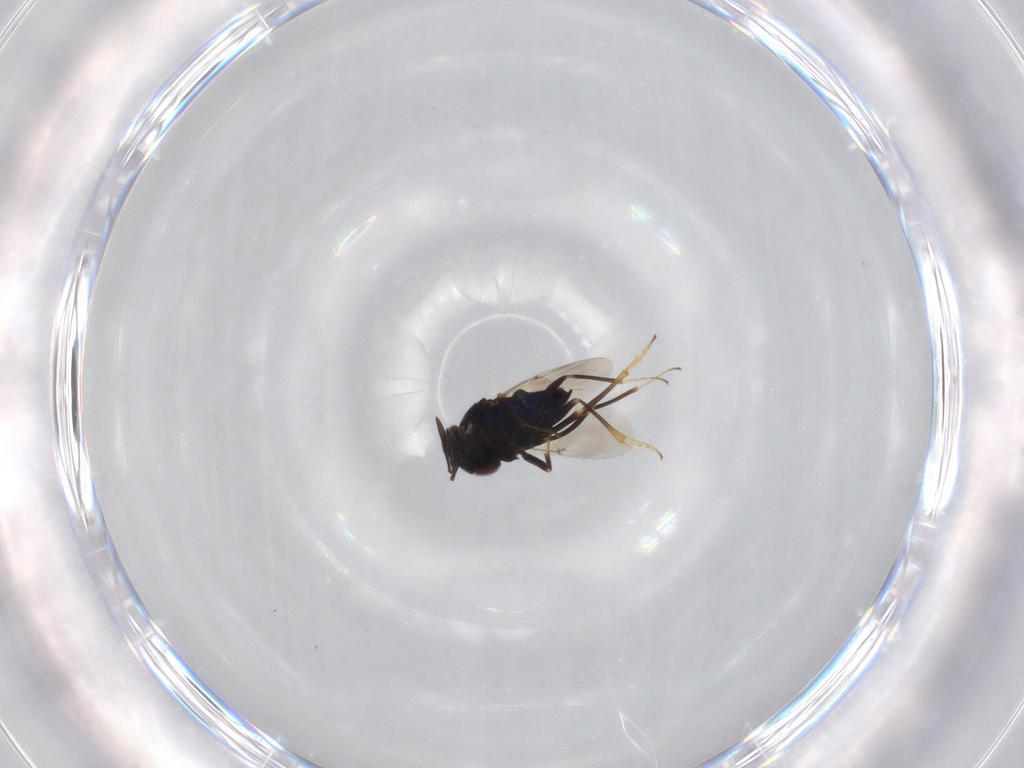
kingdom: Animalia
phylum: Arthropoda
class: Insecta
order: Hymenoptera
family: Encyrtidae
